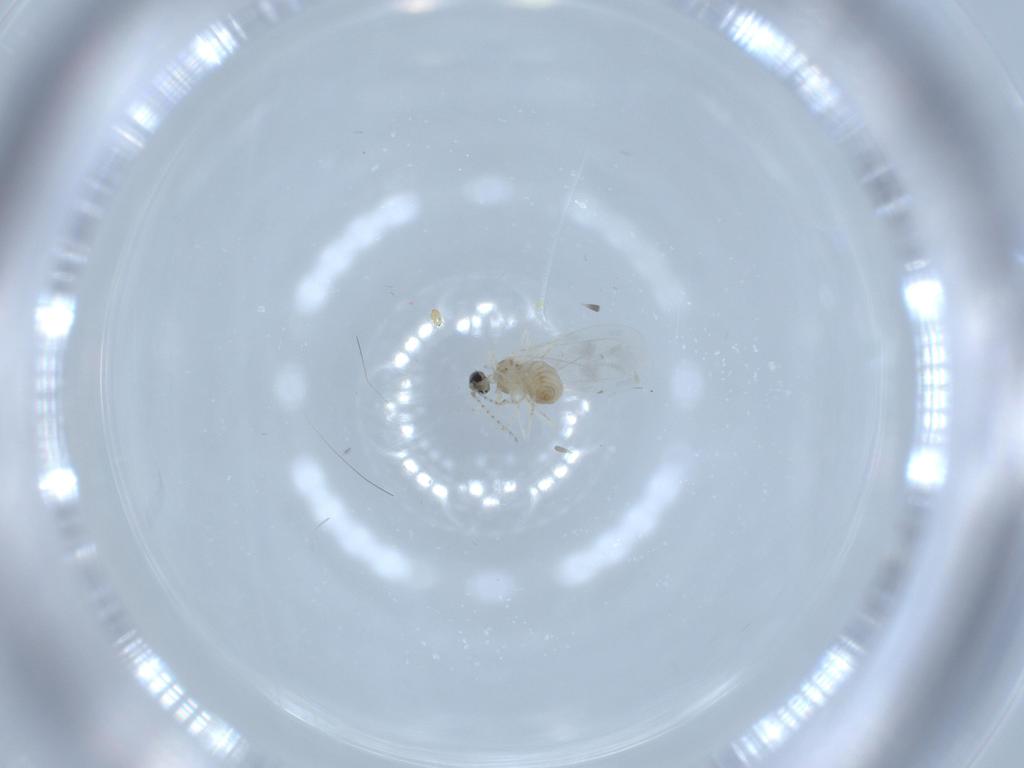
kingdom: Animalia
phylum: Arthropoda
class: Insecta
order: Diptera
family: Cecidomyiidae
